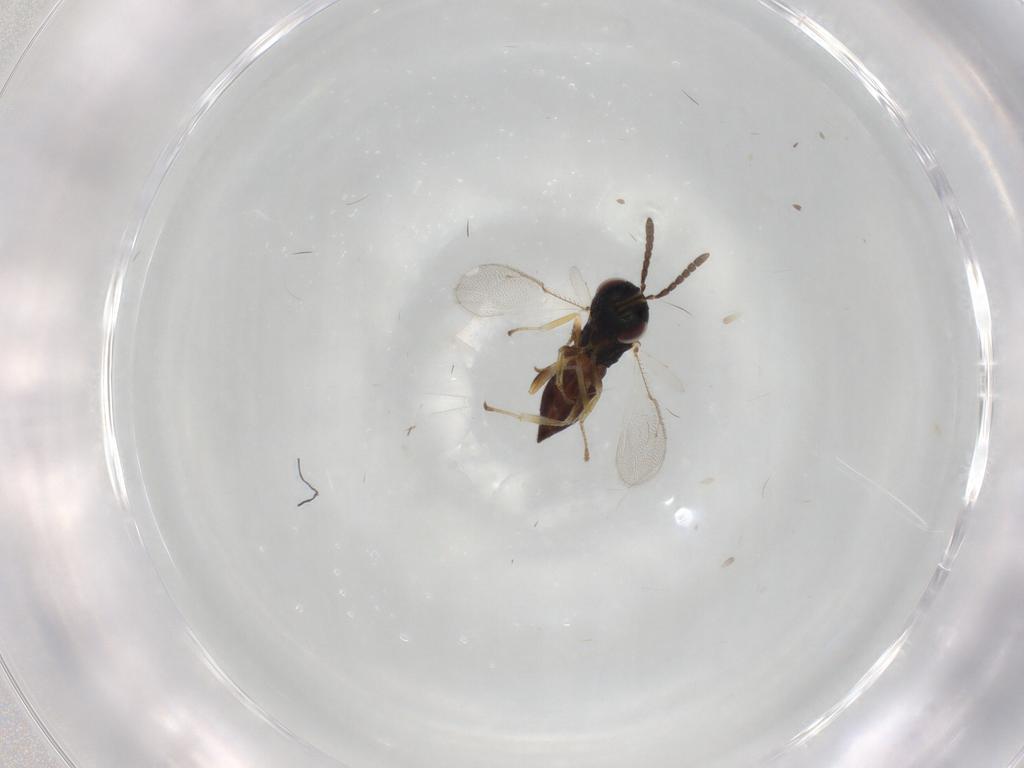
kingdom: Animalia
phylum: Arthropoda
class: Insecta
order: Hymenoptera
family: Pteromalidae
